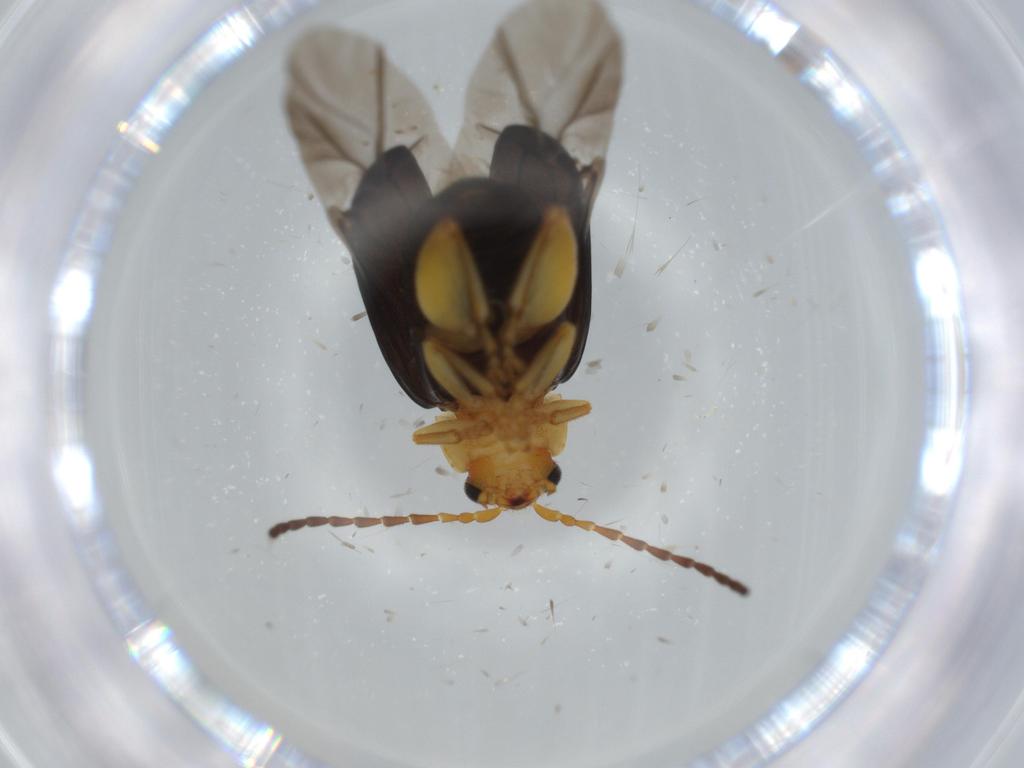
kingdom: Animalia
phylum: Arthropoda
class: Insecta
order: Coleoptera
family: Chrysomelidae
